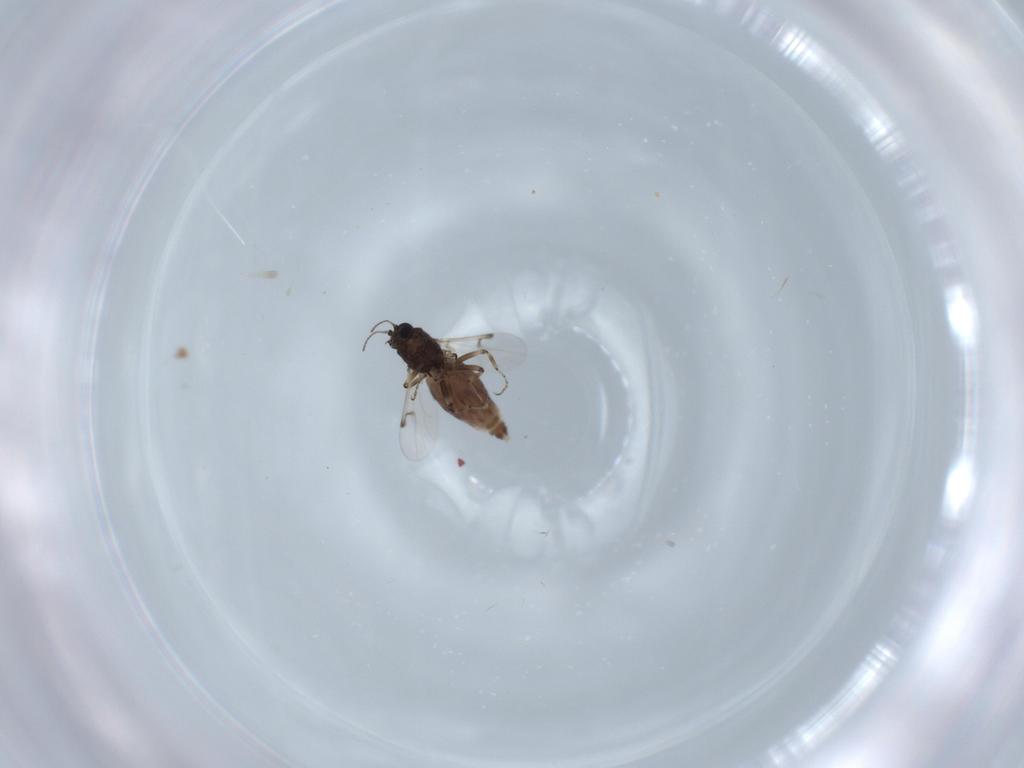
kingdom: Animalia
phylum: Arthropoda
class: Insecta
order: Diptera
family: Ceratopogonidae
